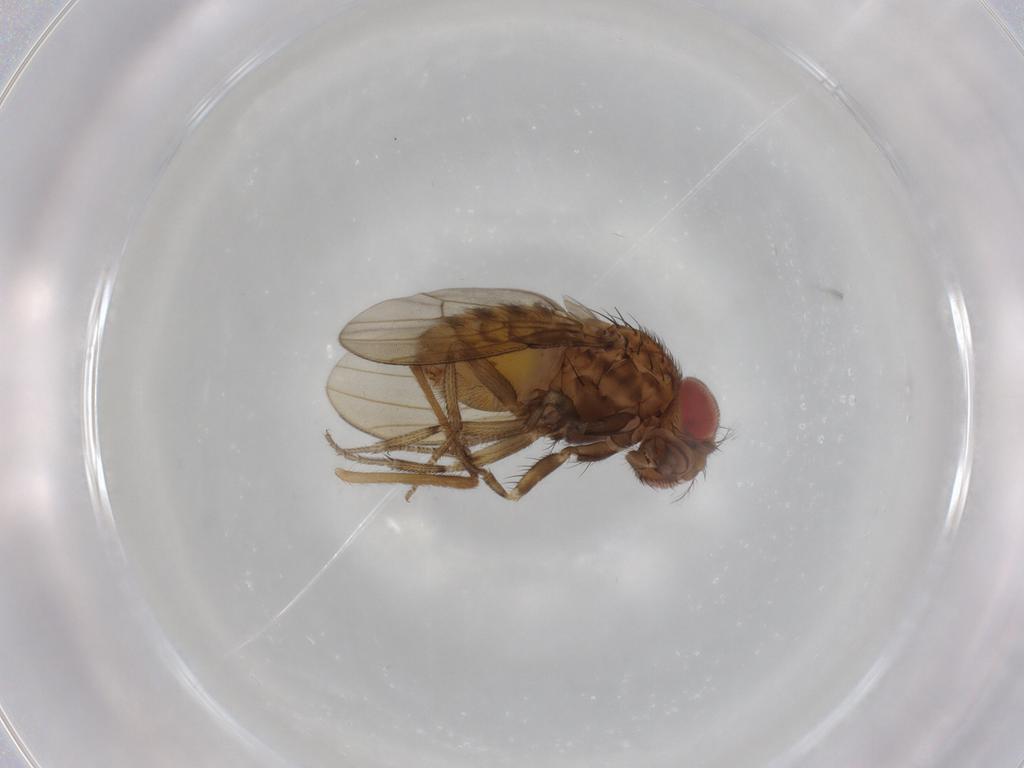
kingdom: Animalia
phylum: Arthropoda
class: Insecta
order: Diptera
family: Drosophilidae
